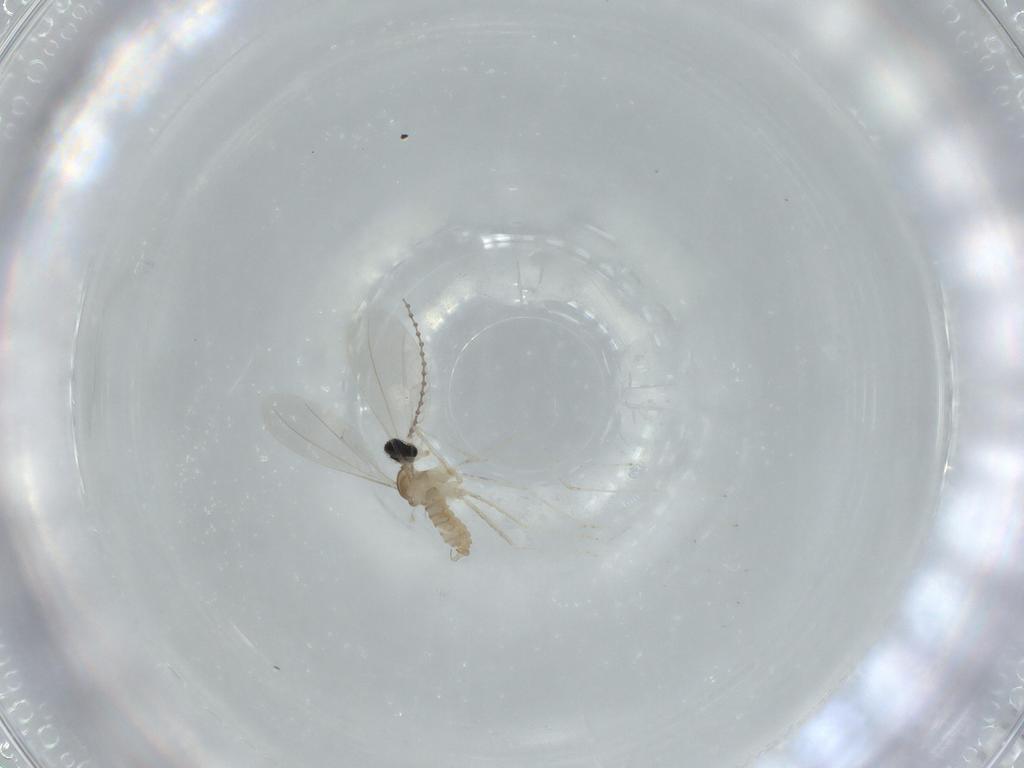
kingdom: Animalia
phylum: Arthropoda
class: Insecta
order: Diptera
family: Cecidomyiidae
